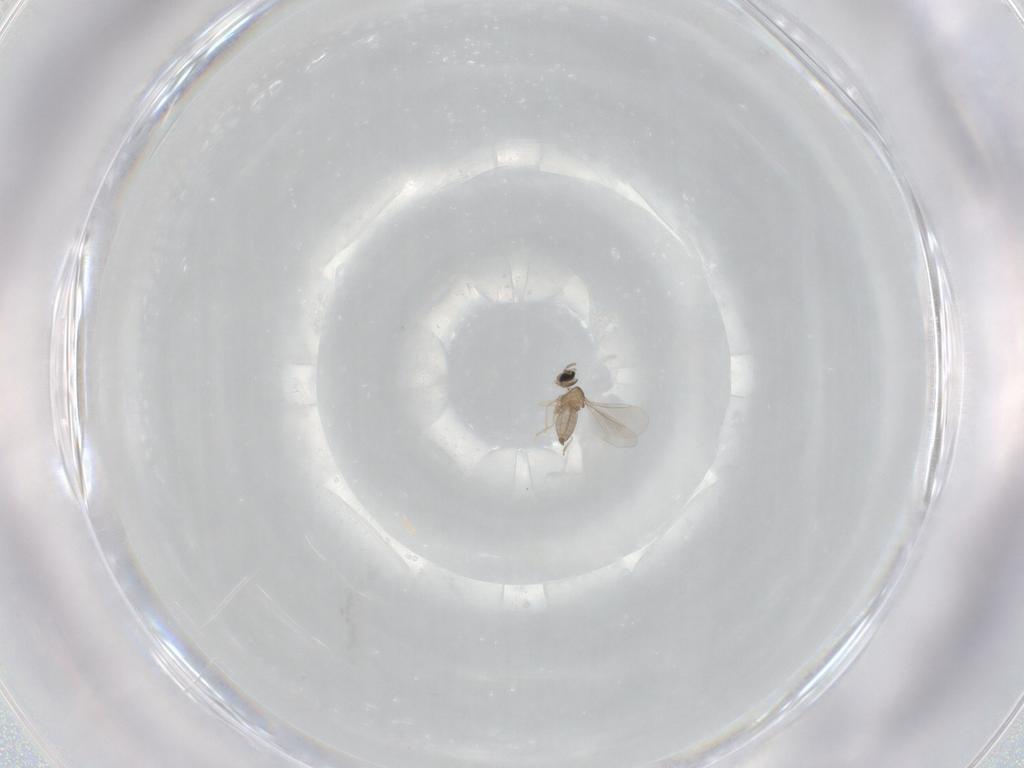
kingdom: Animalia
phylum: Arthropoda
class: Insecta
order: Diptera
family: Cecidomyiidae
